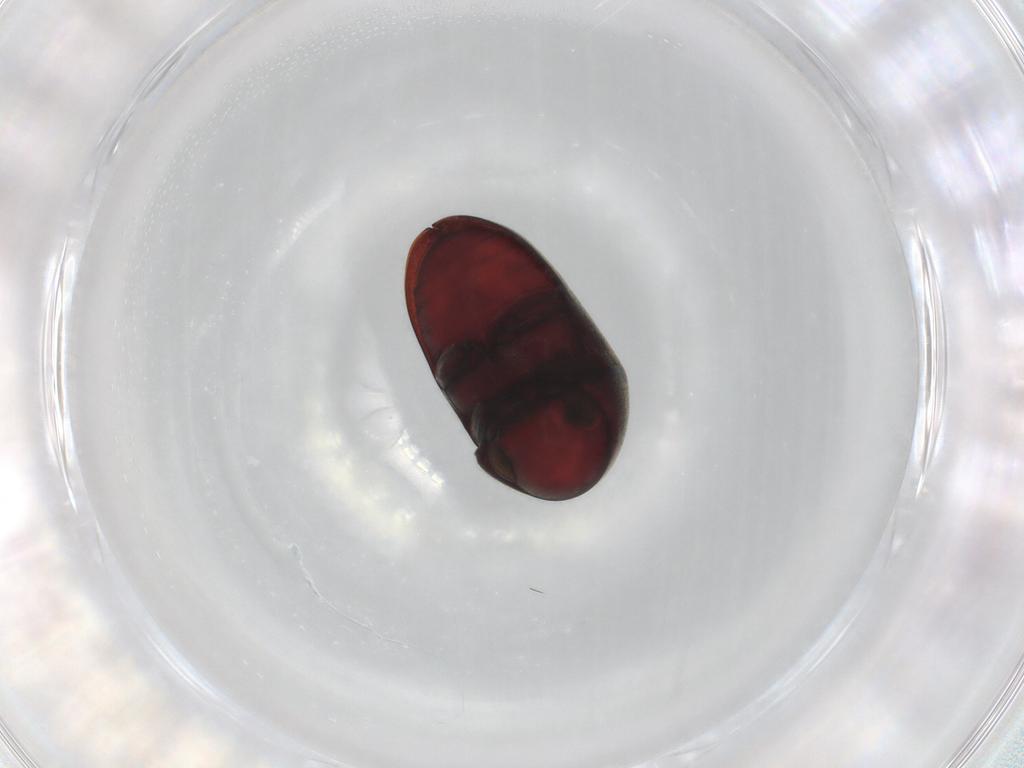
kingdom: Animalia
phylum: Arthropoda
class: Insecta
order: Coleoptera
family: Ptinidae
